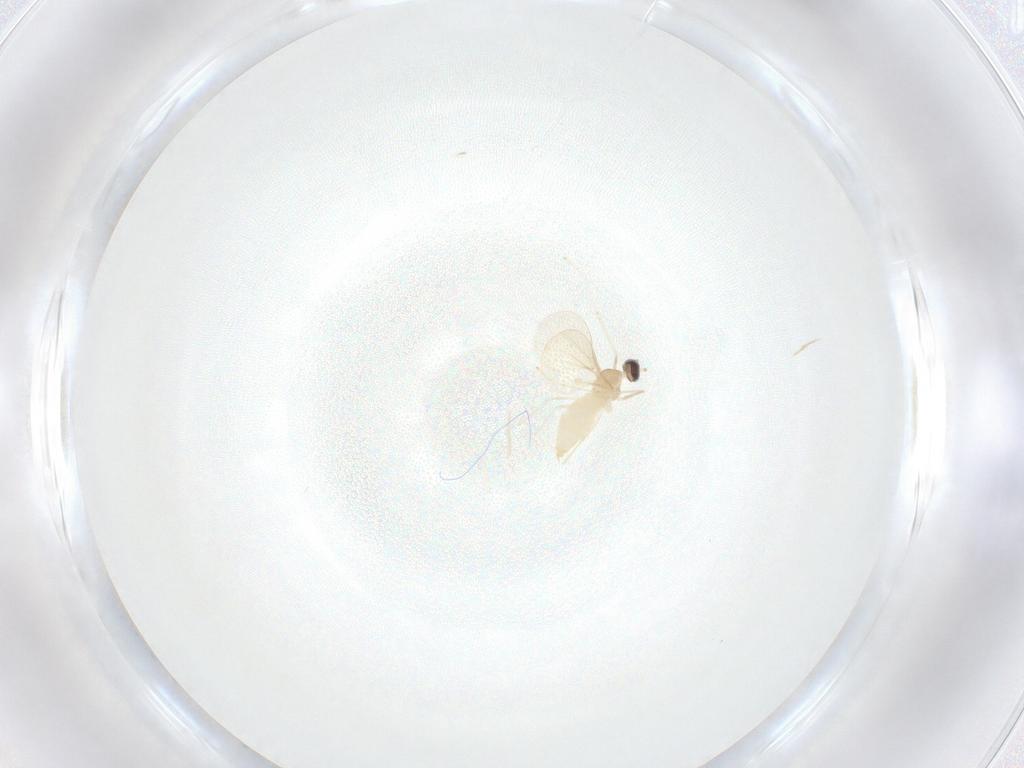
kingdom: Animalia
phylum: Arthropoda
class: Insecta
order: Diptera
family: Cecidomyiidae
